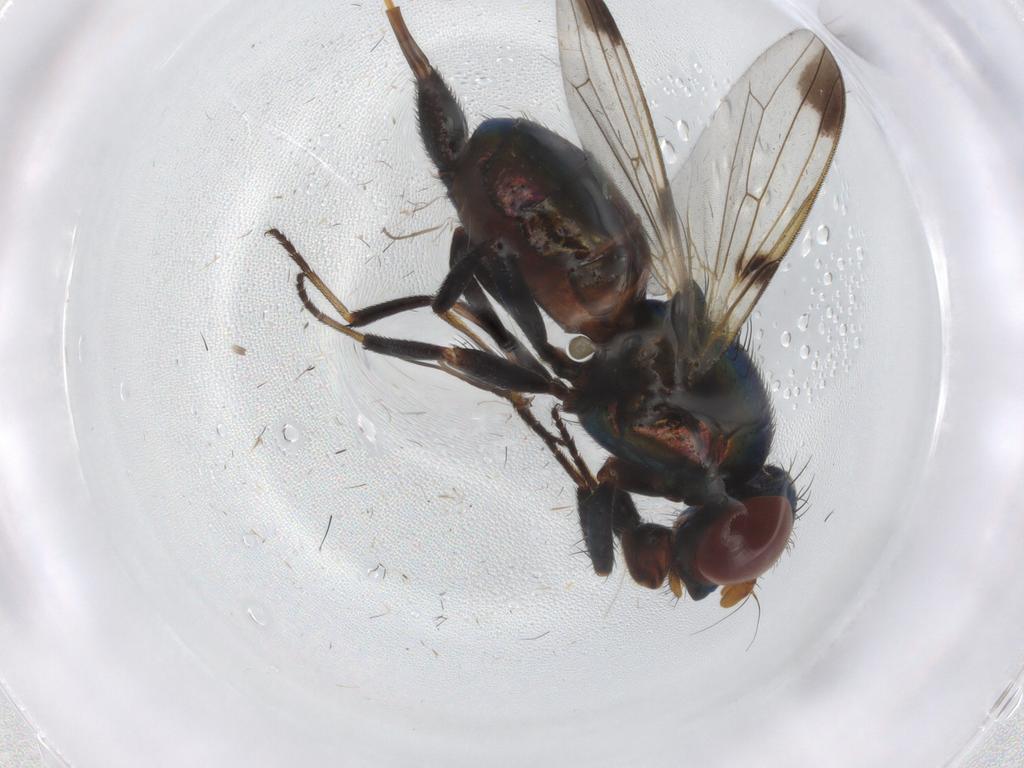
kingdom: Animalia
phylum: Arthropoda
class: Insecta
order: Diptera
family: Ulidiidae
